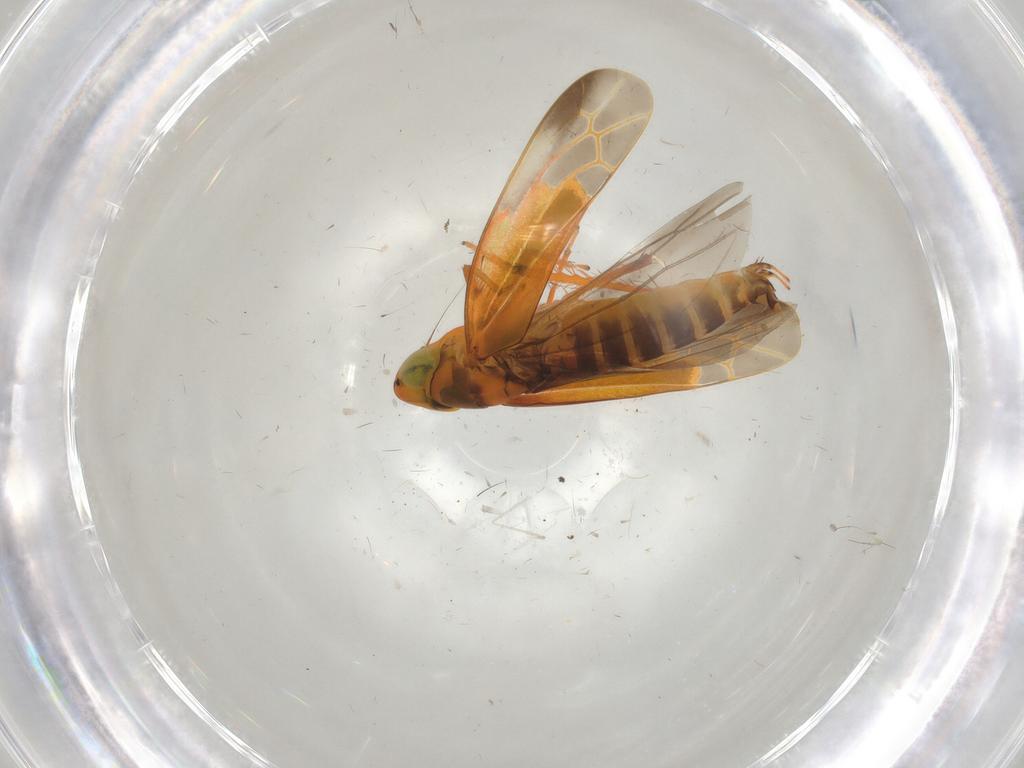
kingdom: Animalia
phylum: Arthropoda
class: Insecta
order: Hemiptera
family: Cicadellidae
